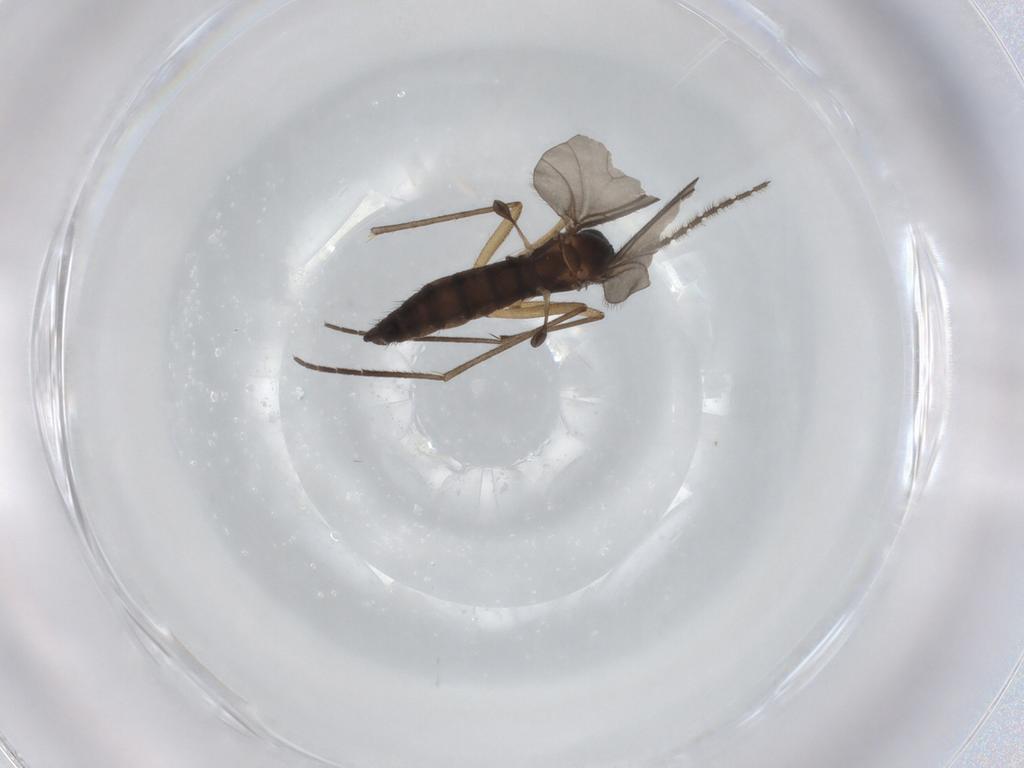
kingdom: Animalia
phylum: Arthropoda
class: Insecta
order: Diptera
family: Sciaridae
